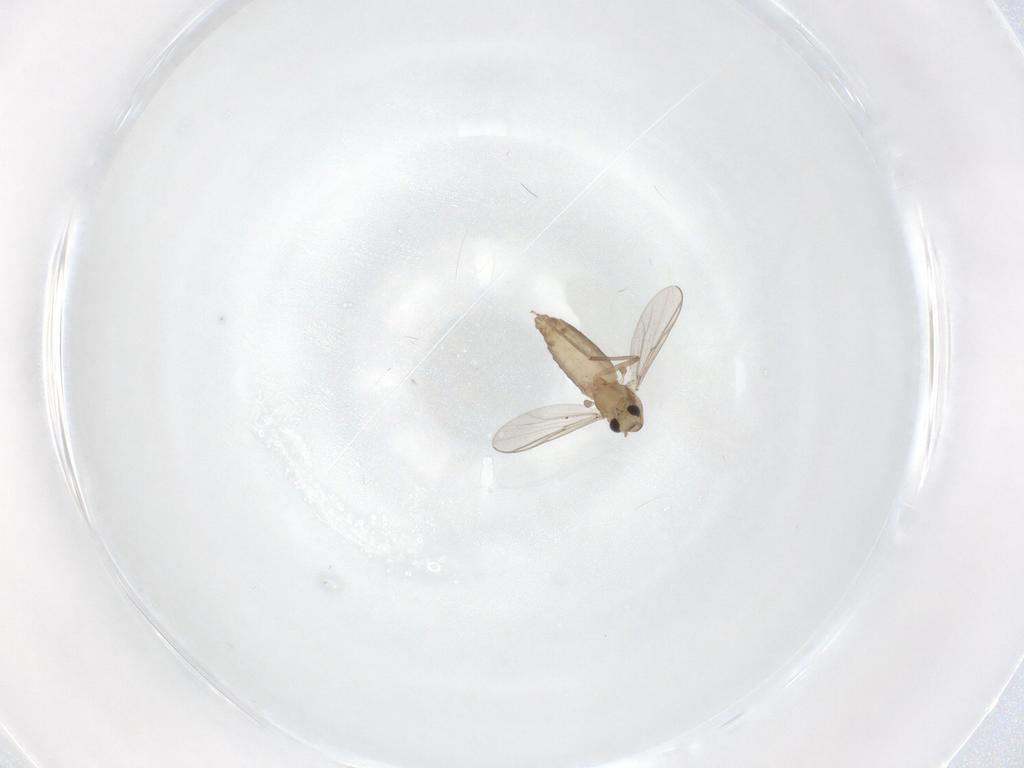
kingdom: Animalia
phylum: Arthropoda
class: Insecta
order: Diptera
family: Chironomidae
